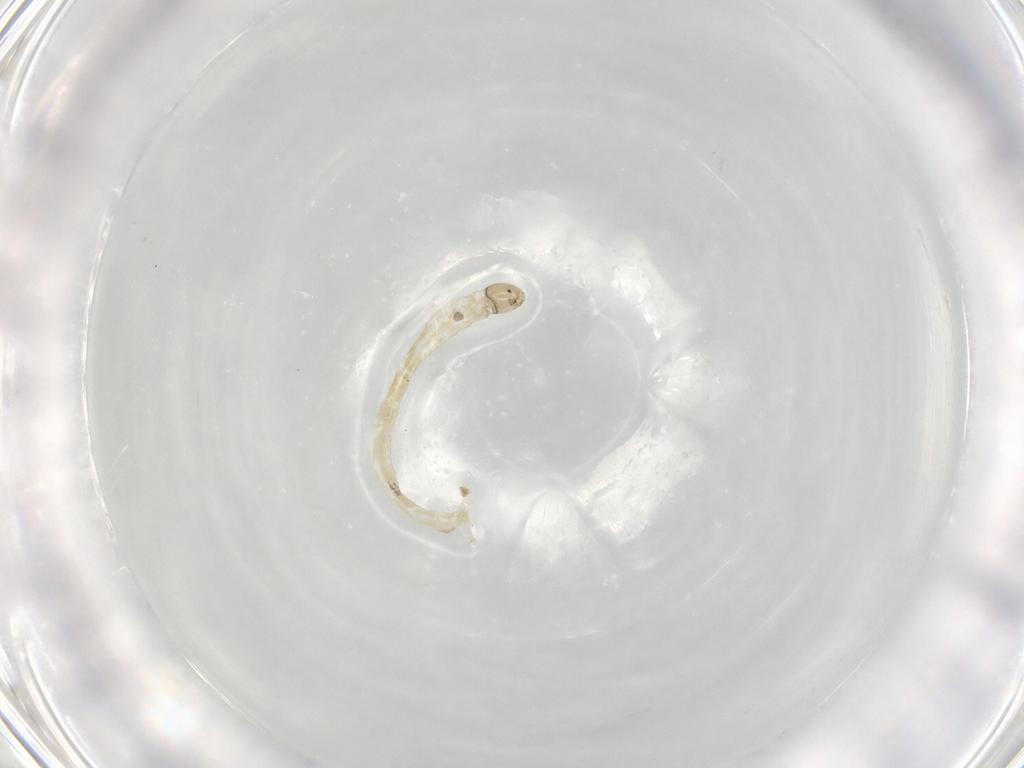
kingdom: Animalia
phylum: Arthropoda
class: Insecta
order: Diptera
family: Chironomidae
